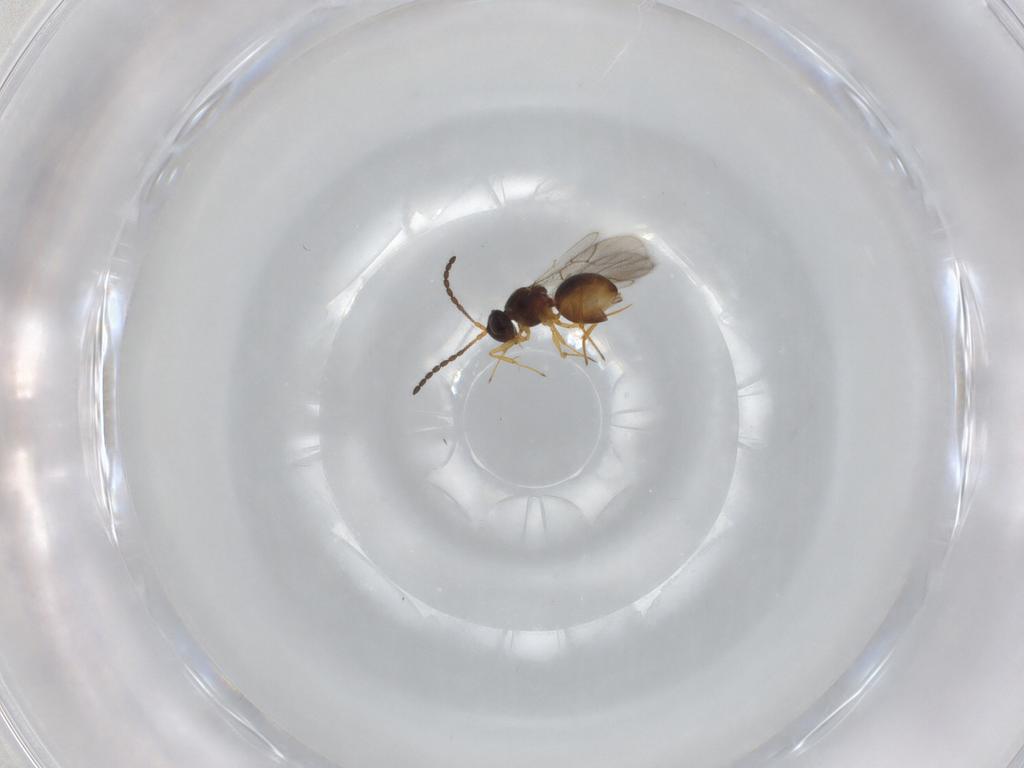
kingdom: Animalia
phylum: Arthropoda
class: Insecta
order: Hymenoptera
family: Figitidae
